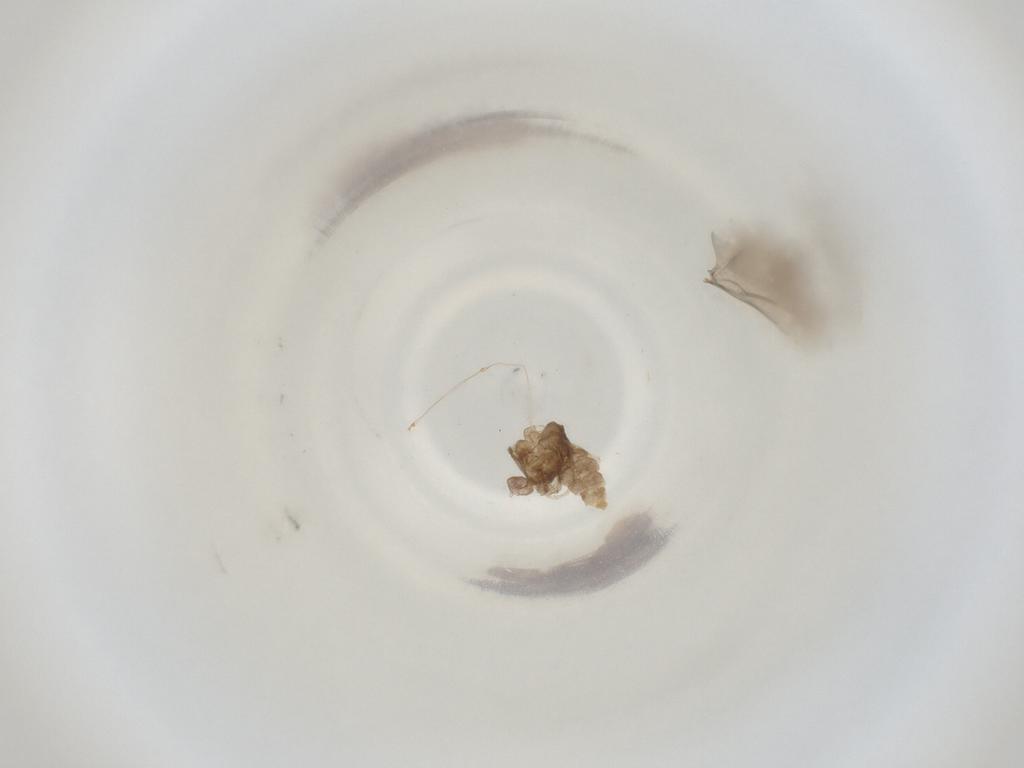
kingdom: Animalia
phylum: Arthropoda
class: Insecta
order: Diptera
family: Cecidomyiidae
